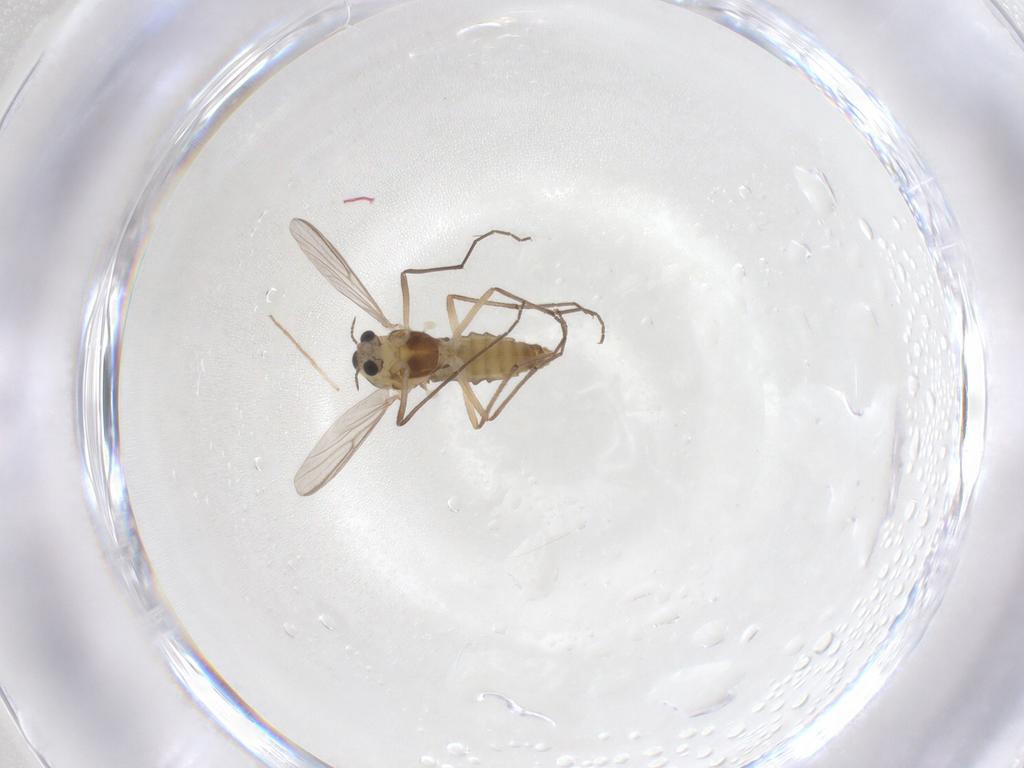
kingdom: Animalia
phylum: Arthropoda
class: Insecta
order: Diptera
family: Chironomidae
